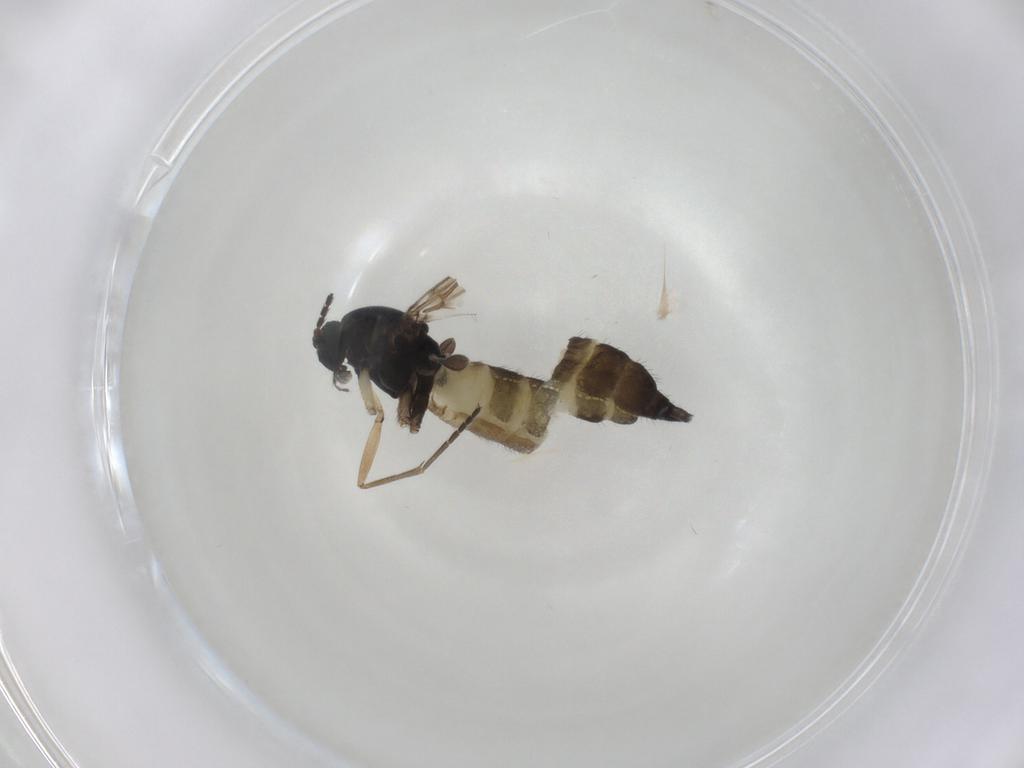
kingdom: Animalia
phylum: Arthropoda
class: Insecta
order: Diptera
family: Sciaridae
